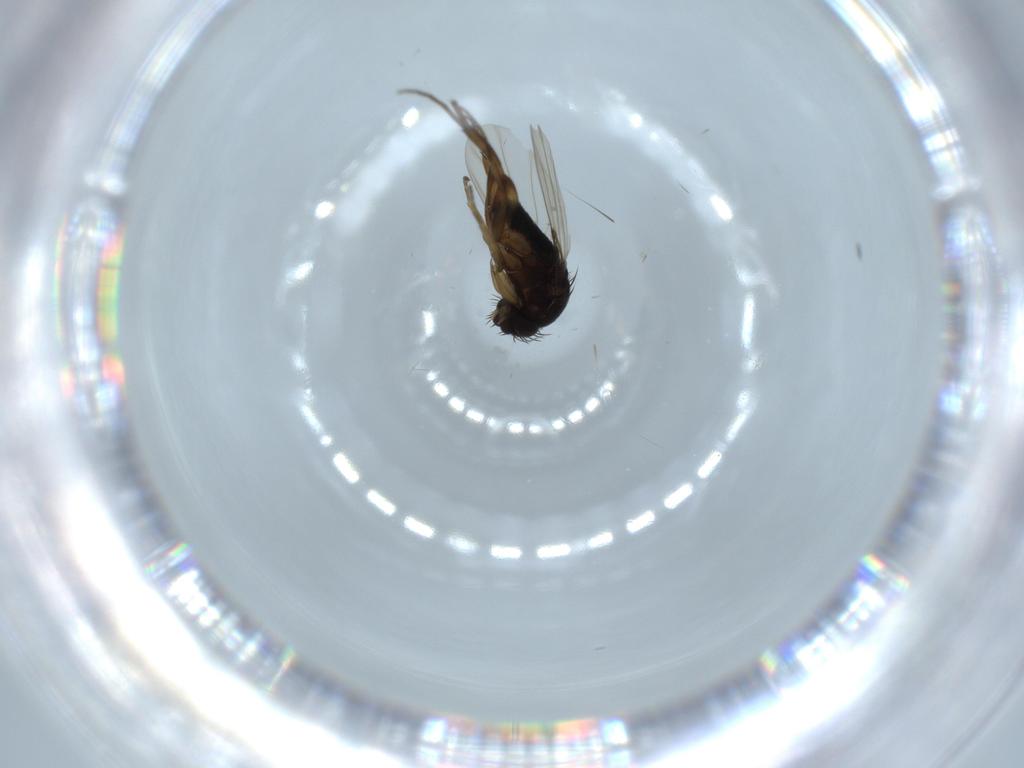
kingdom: Animalia
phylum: Arthropoda
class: Insecta
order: Diptera
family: Phoridae
